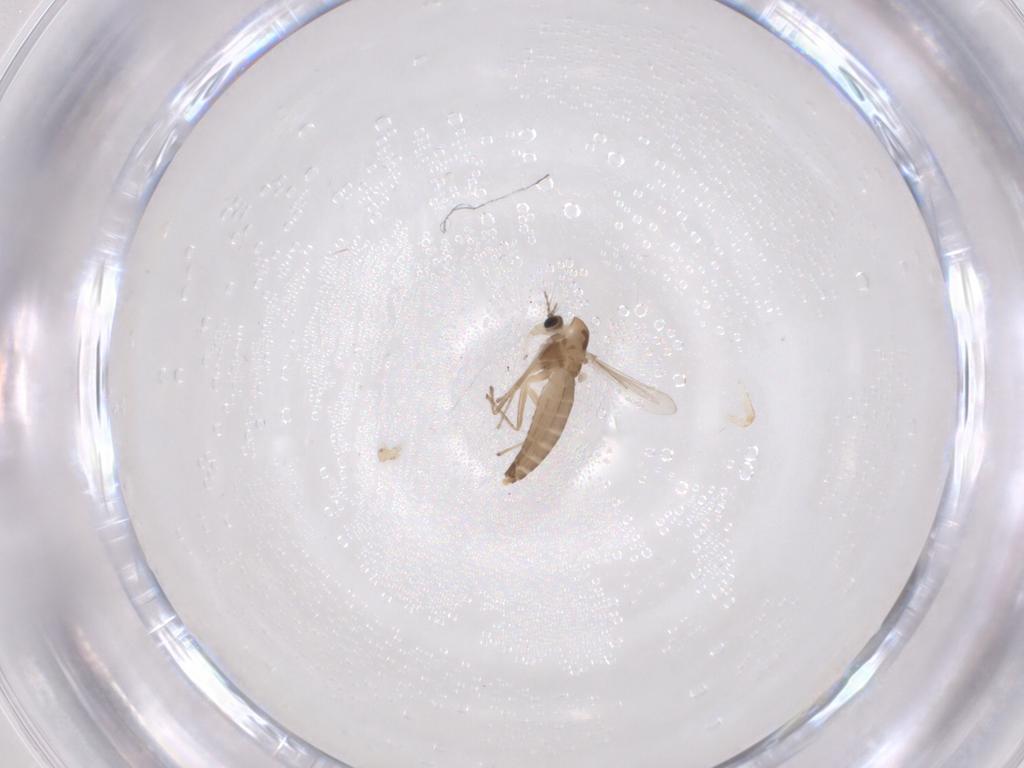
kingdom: Animalia
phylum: Arthropoda
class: Insecta
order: Diptera
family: Chironomidae
